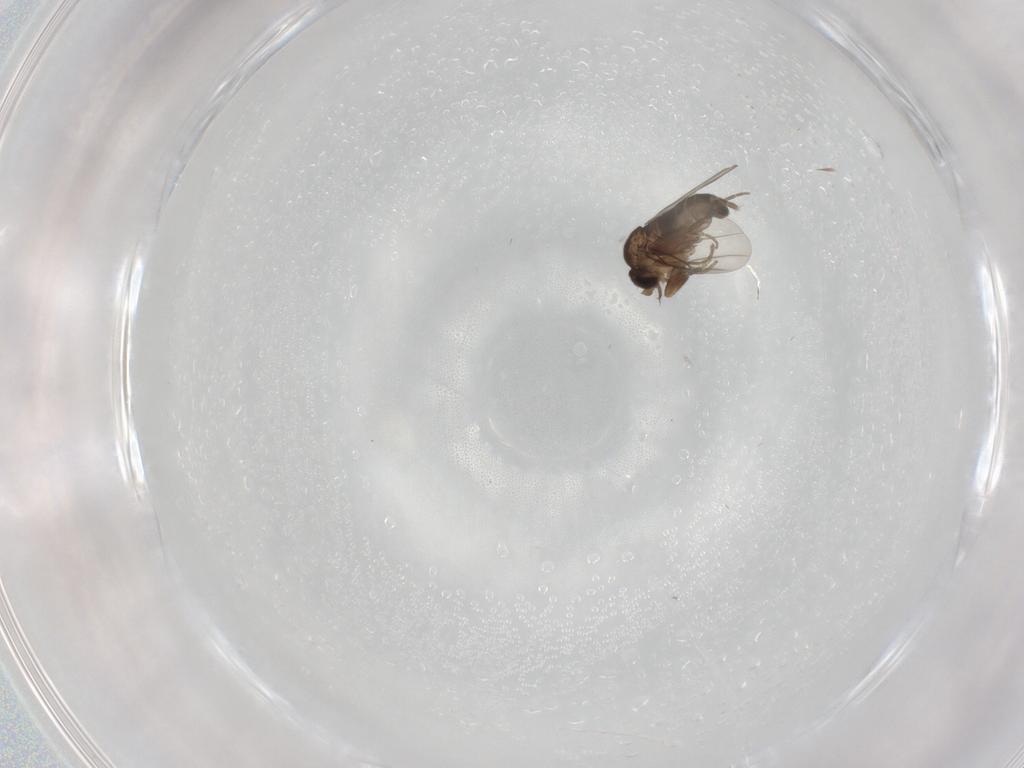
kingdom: Animalia
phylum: Arthropoda
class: Insecta
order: Diptera
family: Ceratopogonidae
